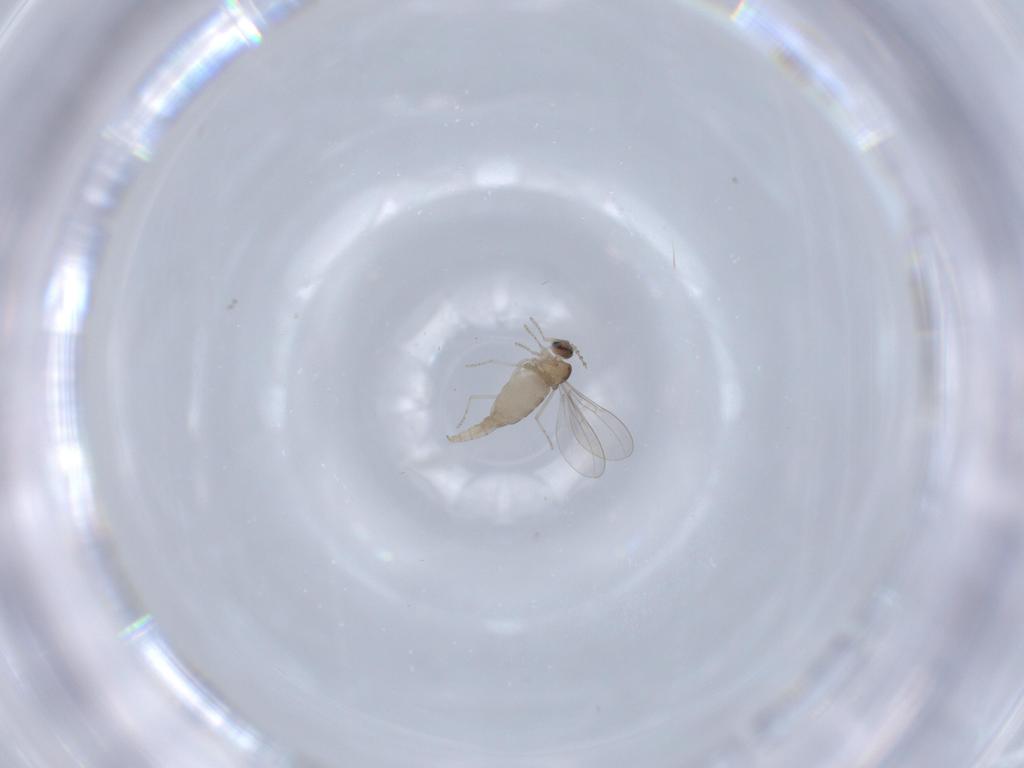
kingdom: Animalia
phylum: Arthropoda
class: Insecta
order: Diptera
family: Cecidomyiidae
